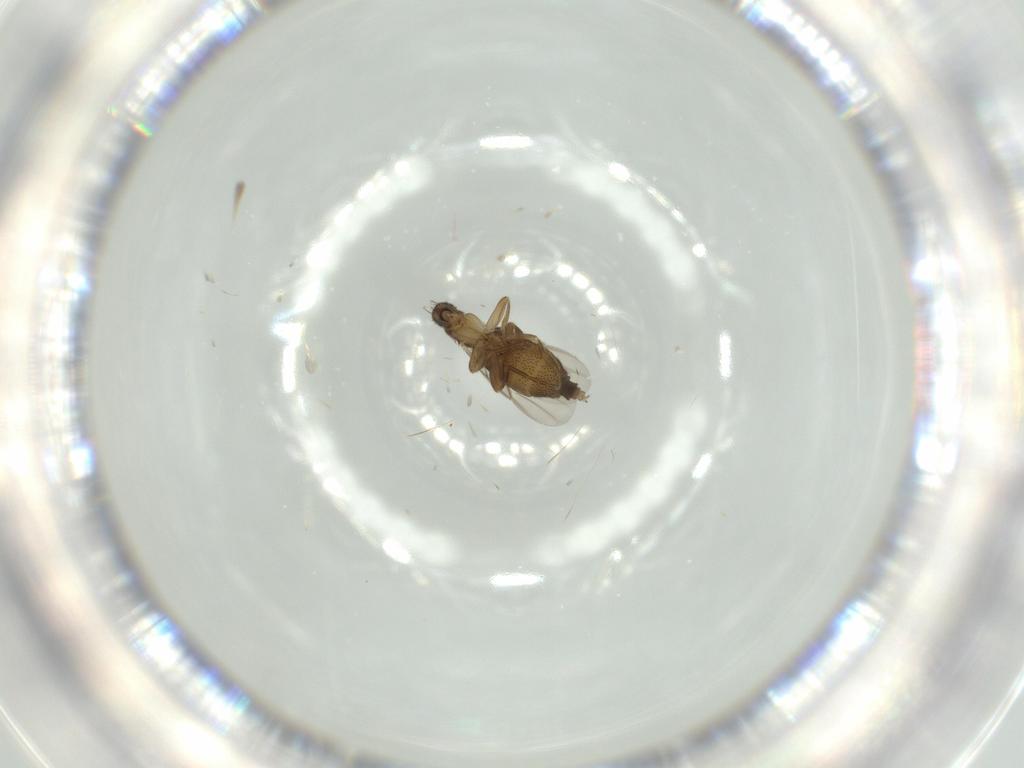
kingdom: Animalia
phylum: Arthropoda
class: Insecta
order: Diptera
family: Phoridae
